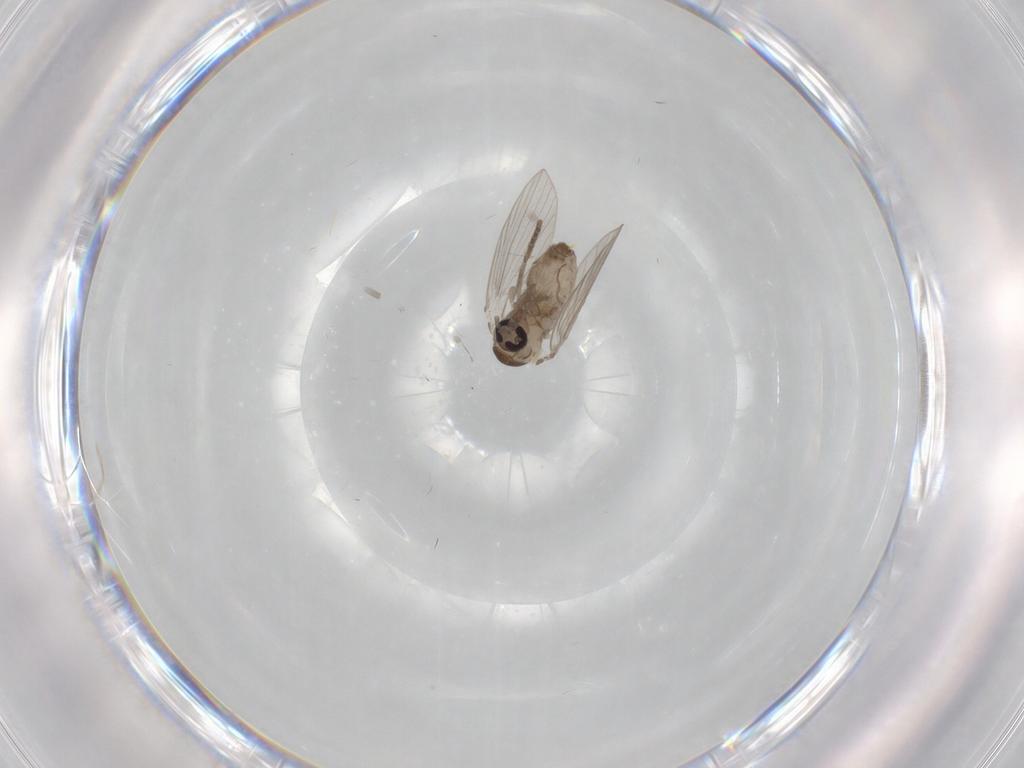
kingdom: Animalia
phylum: Arthropoda
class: Insecta
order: Diptera
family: Psychodidae
